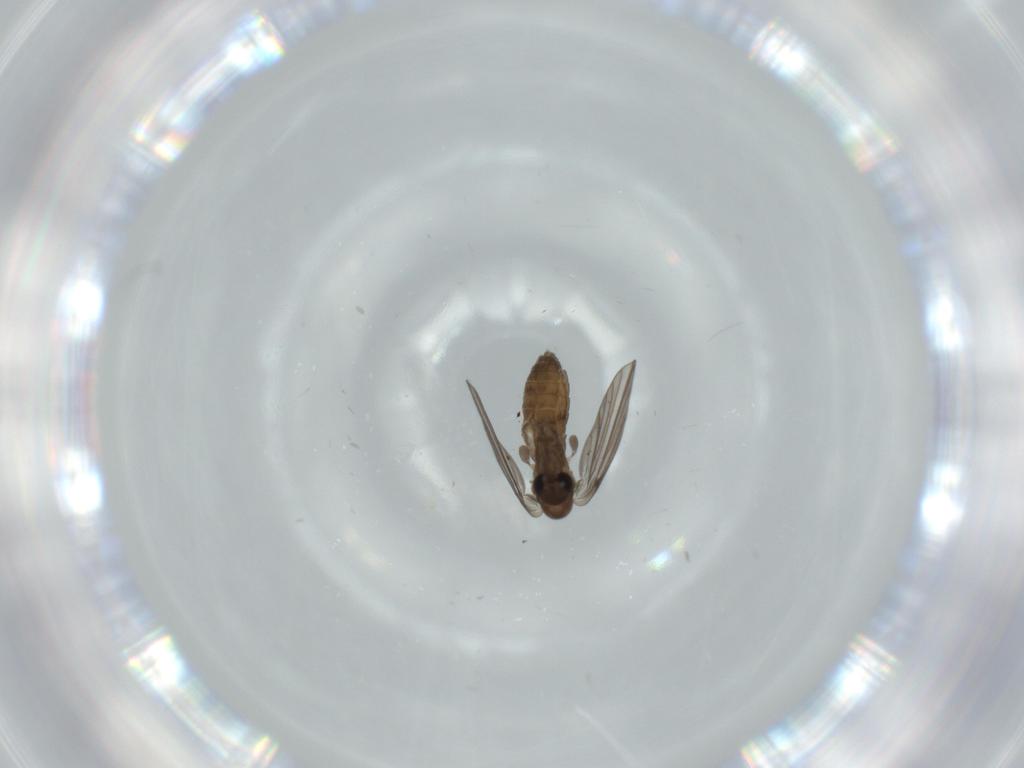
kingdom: Animalia
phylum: Arthropoda
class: Insecta
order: Diptera
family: Psychodidae
